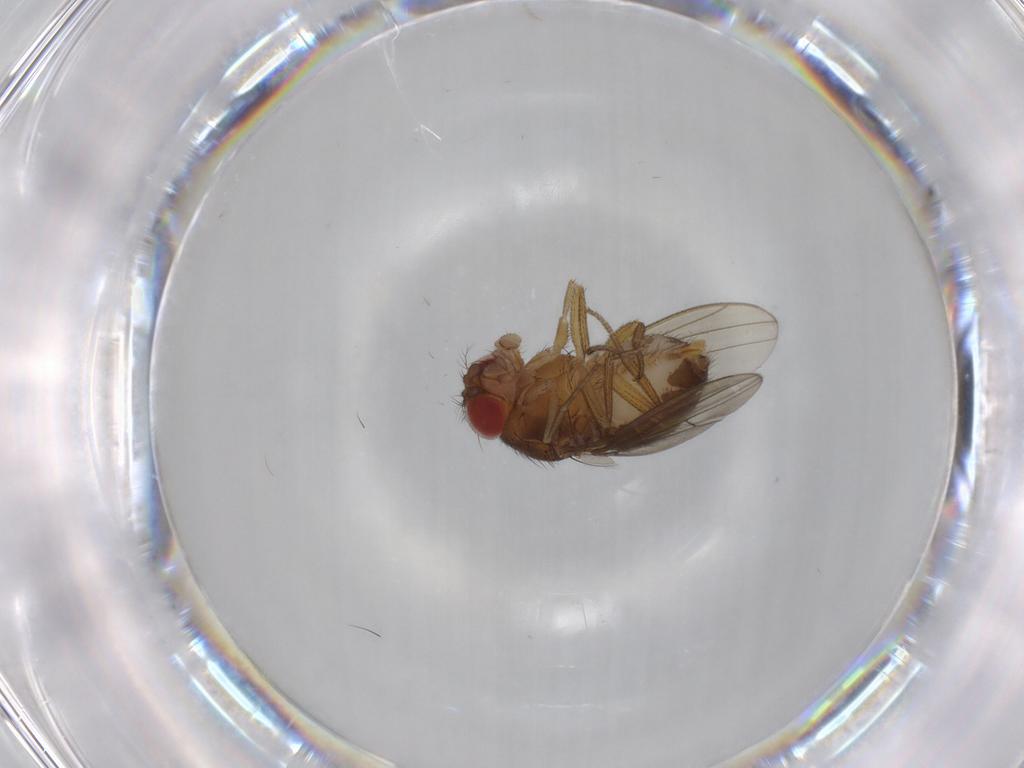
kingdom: Animalia
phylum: Arthropoda
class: Insecta
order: Diptera
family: Drosophilidae
